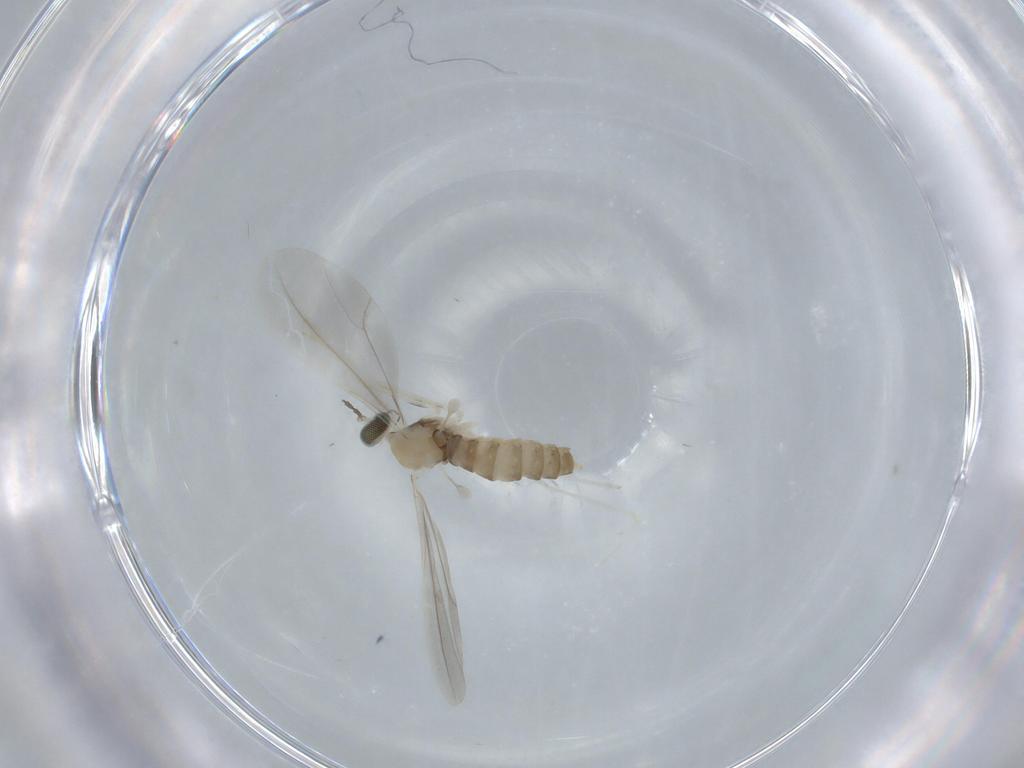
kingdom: Animalia
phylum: Arthropoda
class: Insecta
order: Diptera
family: Cecidomyiidae
